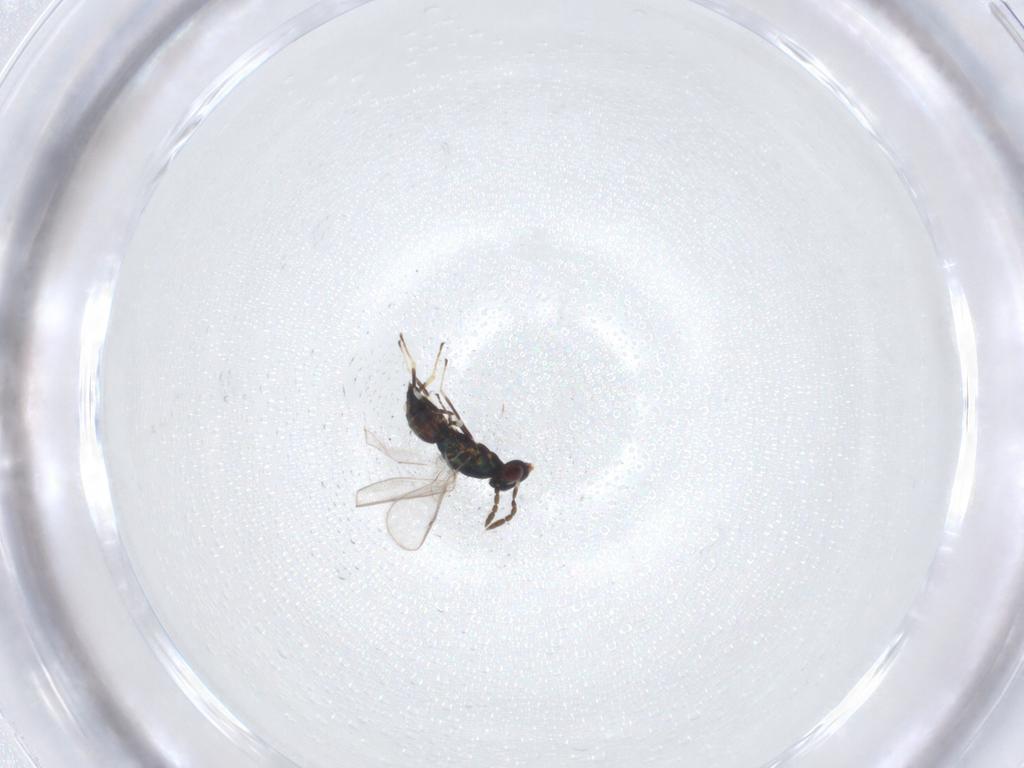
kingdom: Animalia
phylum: Arthropoda
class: Insecta
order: Hymenoptera
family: Eulophidae
